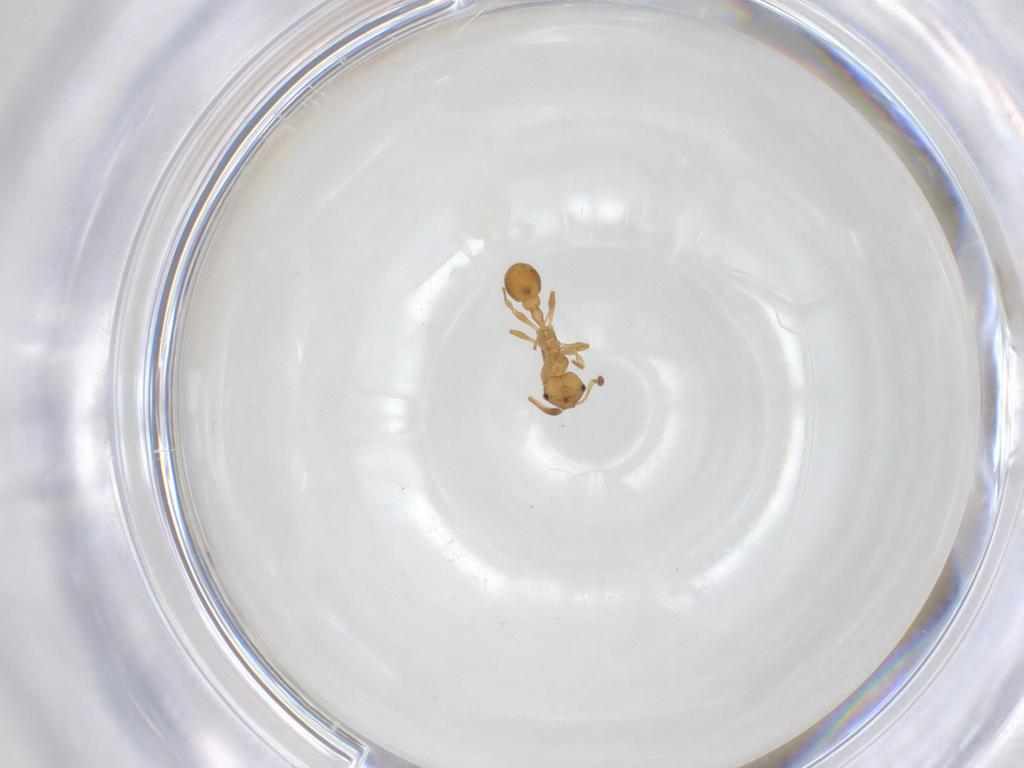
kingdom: Animalia
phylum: Arthropoda
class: Insecta
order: Hymenoptera
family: Formicidae
